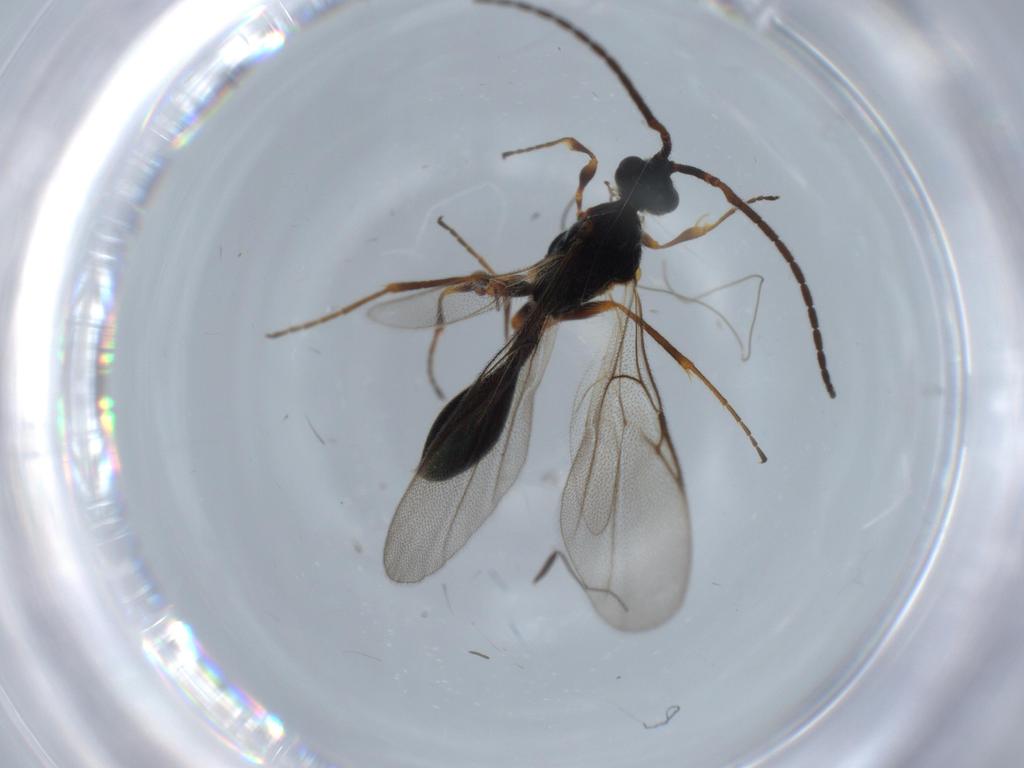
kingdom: Animalia
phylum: Arthropoda
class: Insecta
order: Hymenoptera
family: Diapriidae
